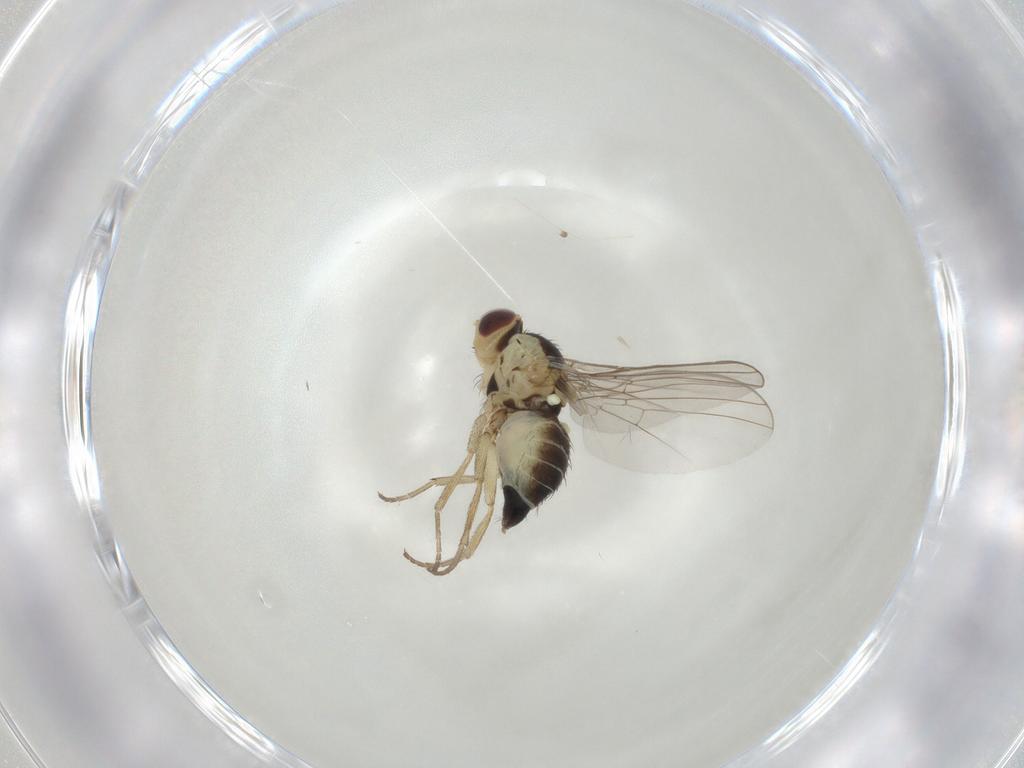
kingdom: Animalia
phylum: Arthropoda
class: Insecta
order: Diptera
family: Agromyzidae
